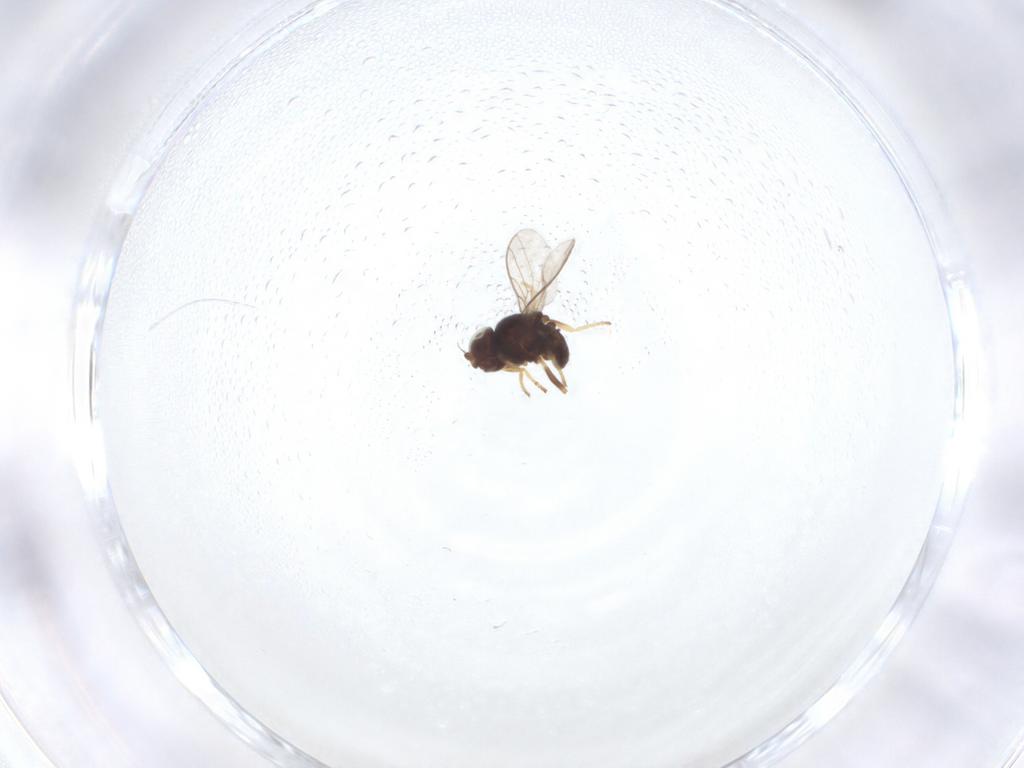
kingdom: Animalia
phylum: Arthropoda
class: Insecta
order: Diptera
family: Chloropidae
